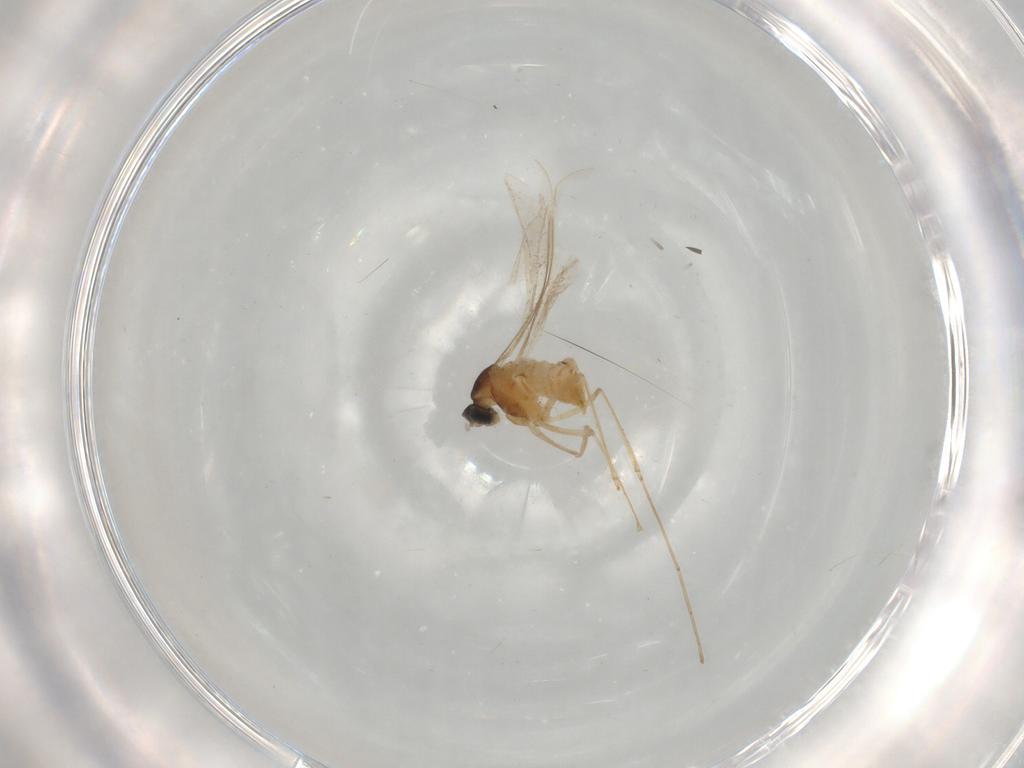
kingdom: Animalia
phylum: Arthropoda
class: Insecta
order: Diptera
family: Cecidomyiidae
